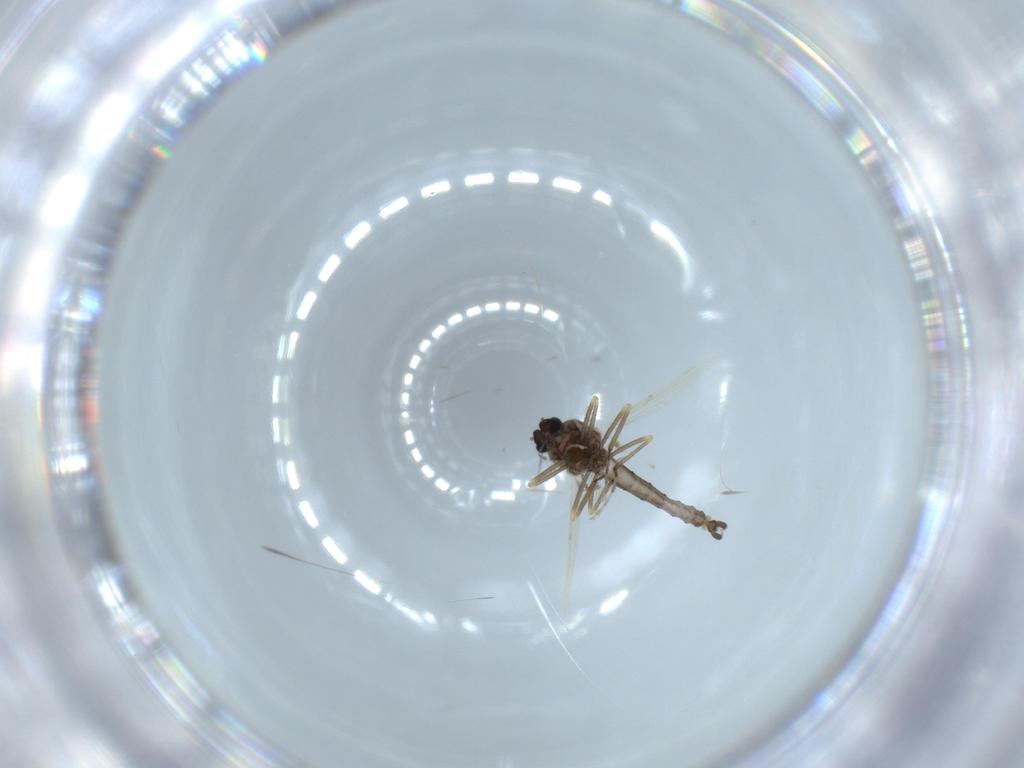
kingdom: Animalia
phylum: Arthropoda
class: Insecta
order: Diptera
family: Ceratopogonidae
